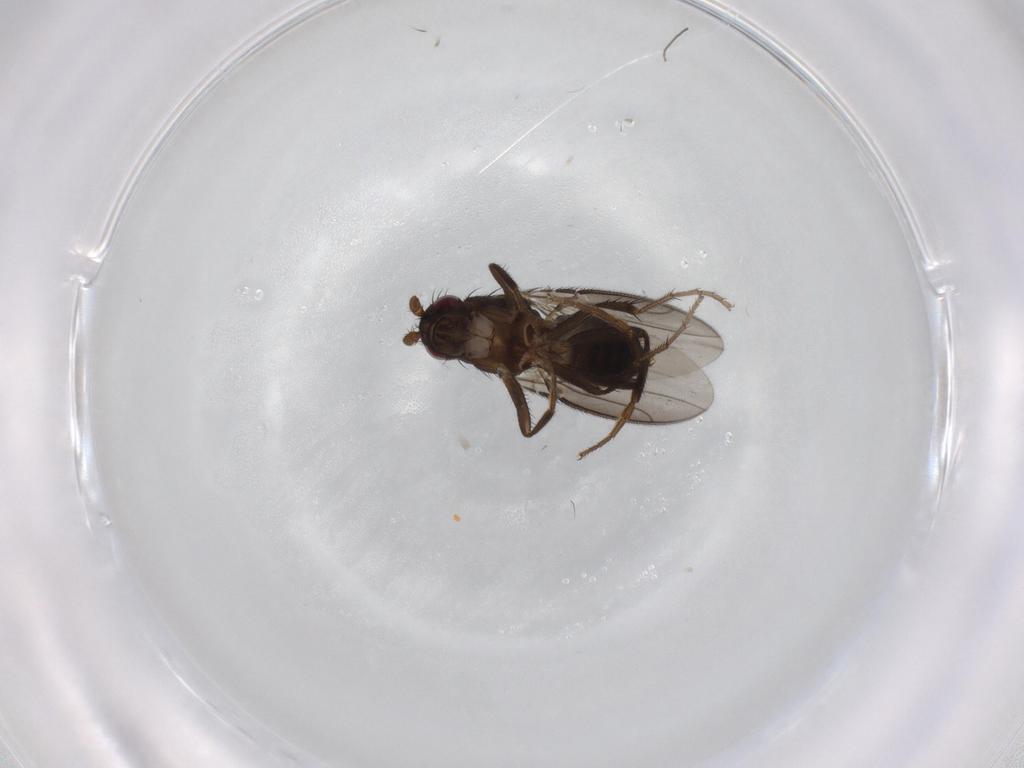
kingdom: Animalia
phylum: Arthropoda
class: Insecta
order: Diptera
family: Sphaeroceridae
